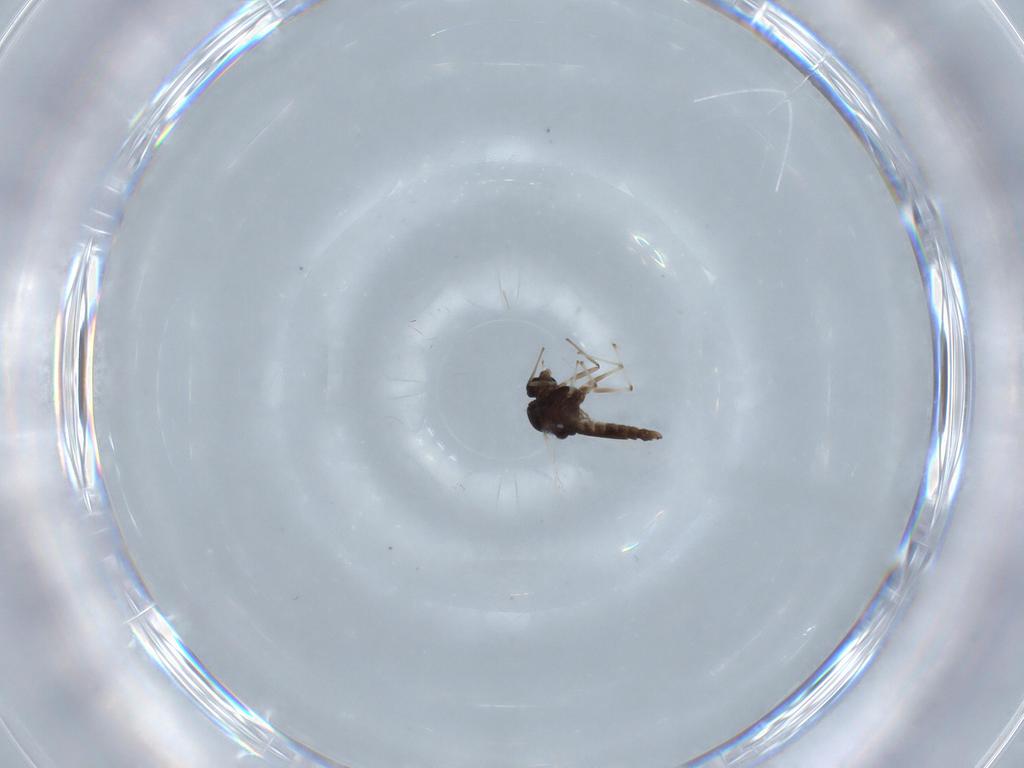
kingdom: Animalia
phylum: Arthropoda
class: Insecta
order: Diptera
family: Chironomidae
